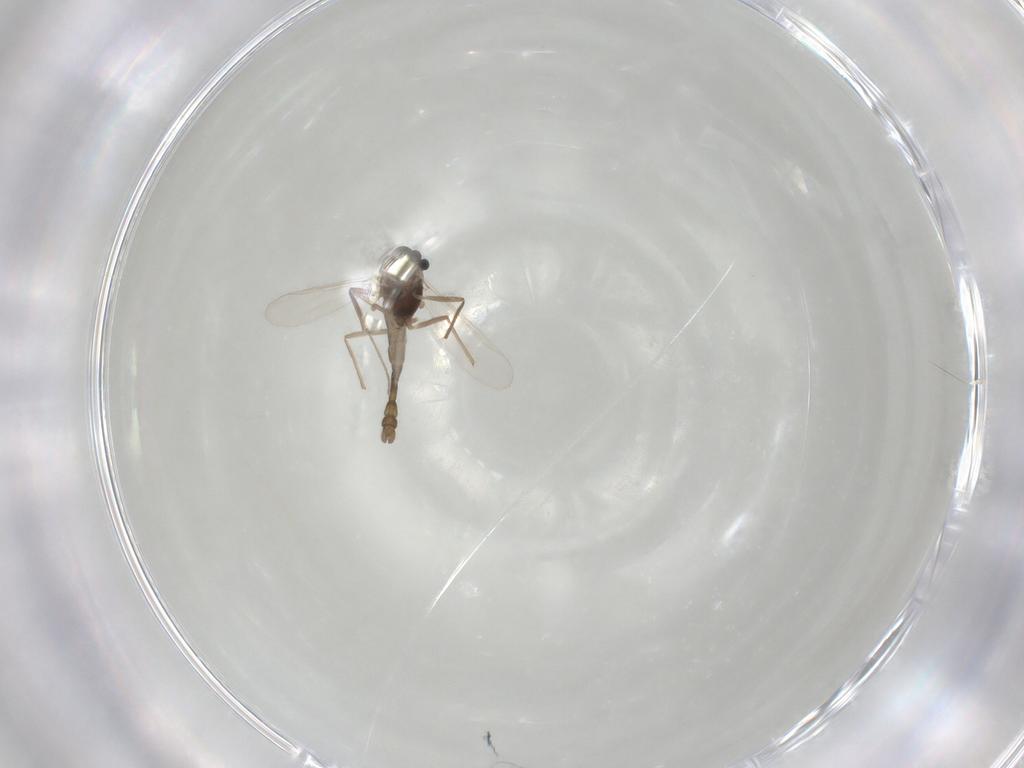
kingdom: Animalia
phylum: Arthropoda
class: Insecta
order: Diptera
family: Chironomidae
